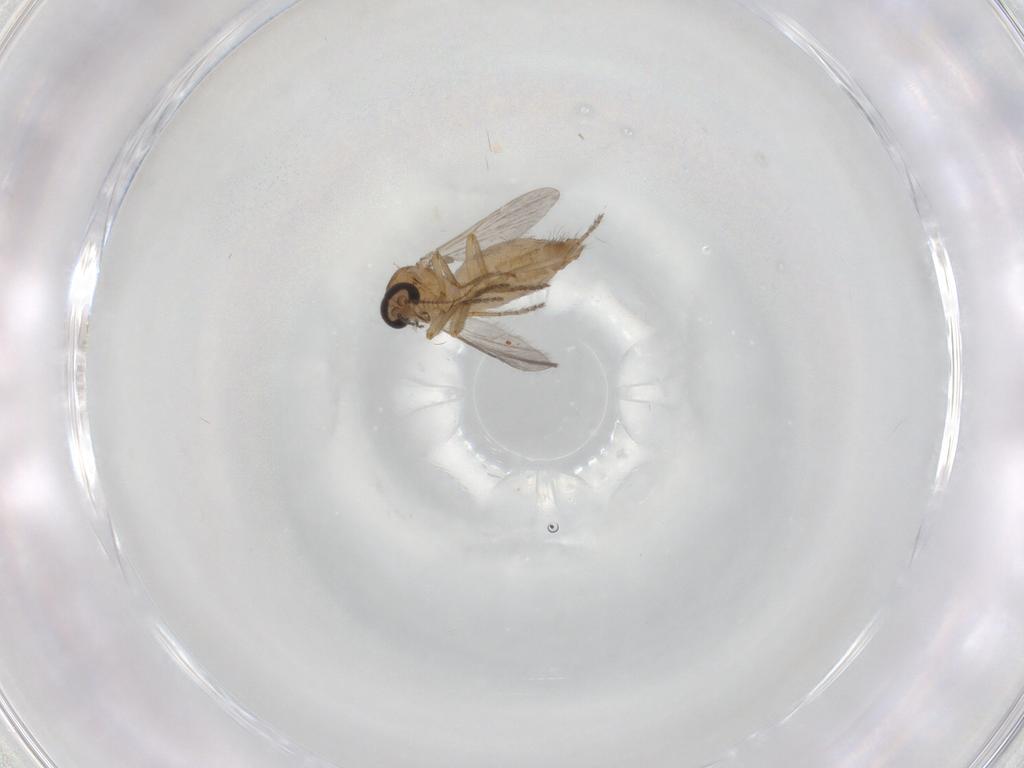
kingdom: Animalia
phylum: Arthropoda
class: Insecta
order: Diptera
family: Ceratopogonidae
